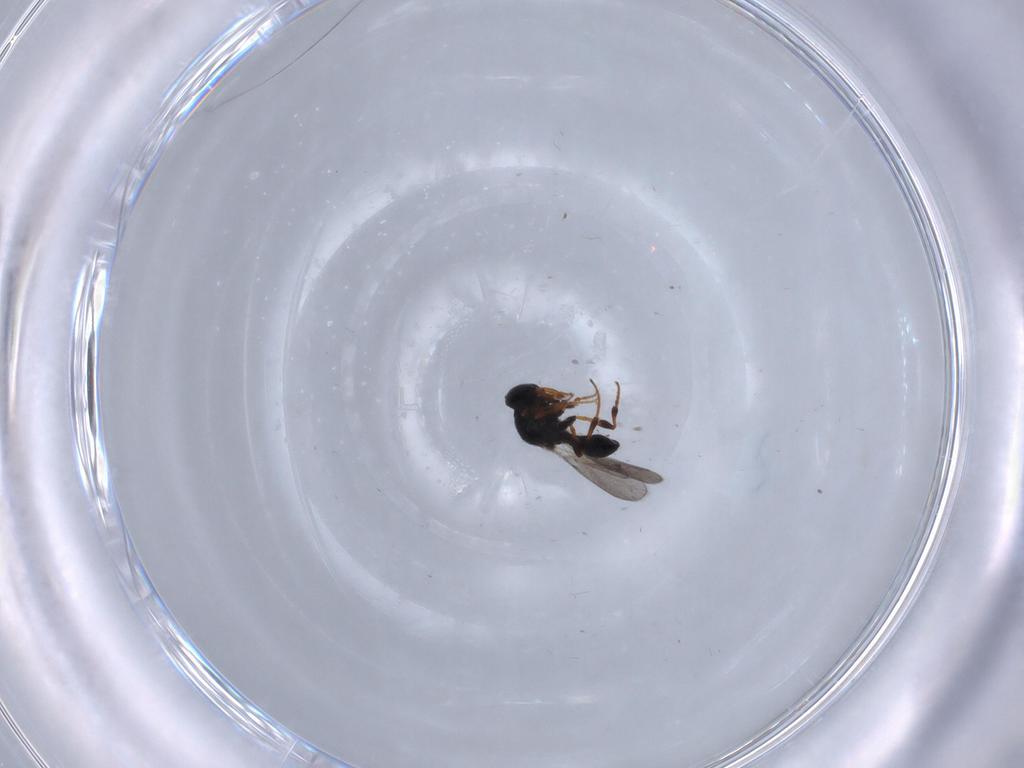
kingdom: Animalia
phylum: Arthropoda
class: Insecta
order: Hymenoptera
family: Platygastridae
